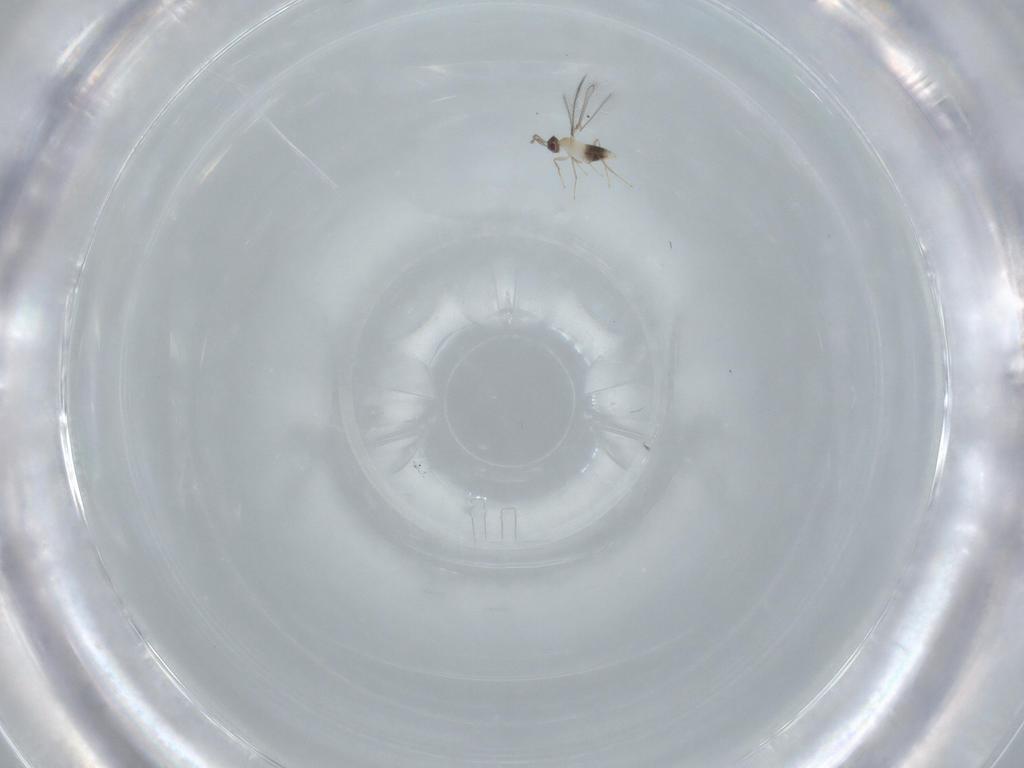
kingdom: Animalia
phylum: Arthropoda
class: Insecta
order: Hymenoptera
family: Mymaridae
